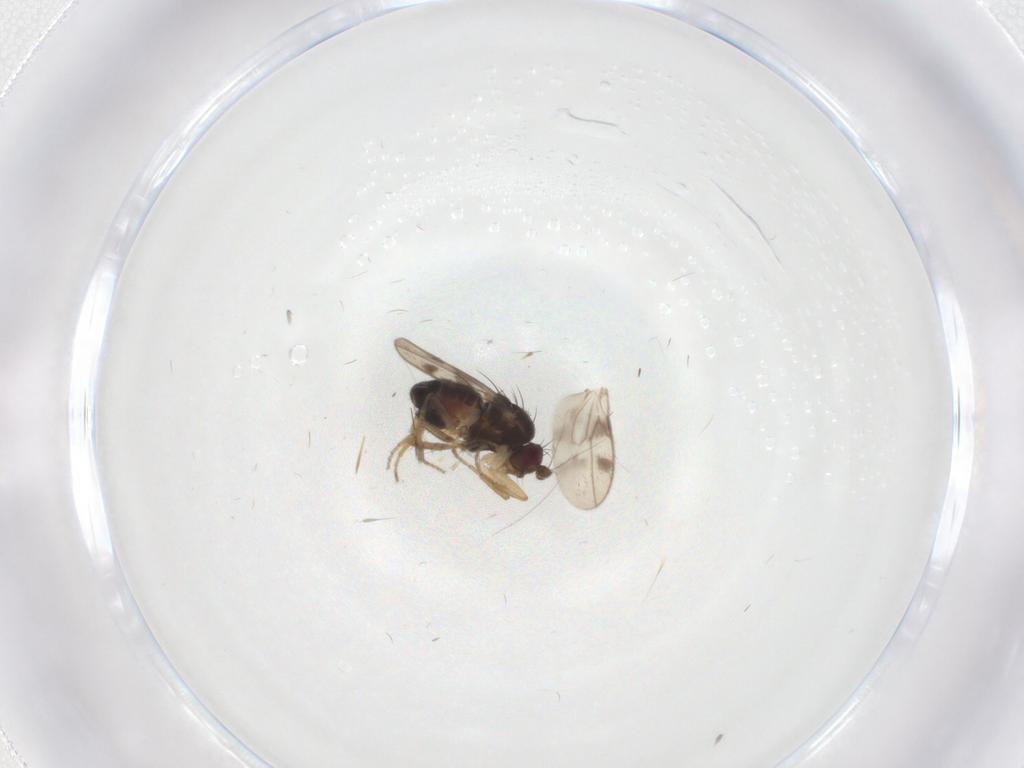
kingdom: Animalia
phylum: Arthropoda
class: Insecta
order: Diptera
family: Sphaeroceridae
